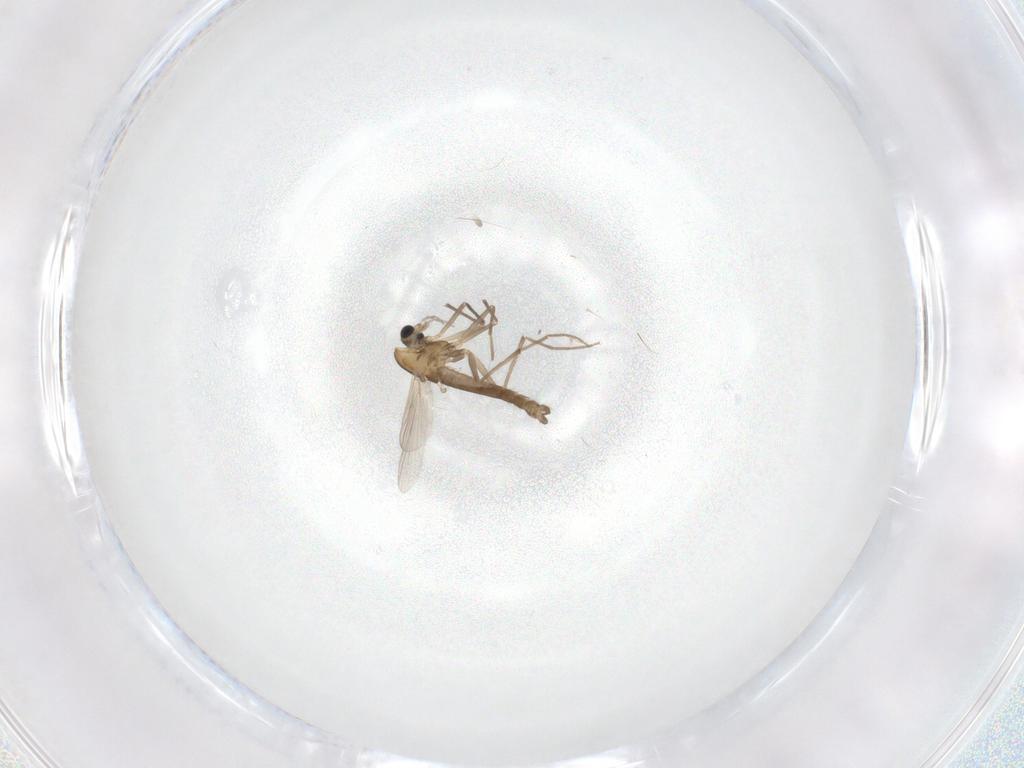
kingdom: Animalia
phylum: Arthropoda
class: Insecta
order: Diptera
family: Chironomidae
